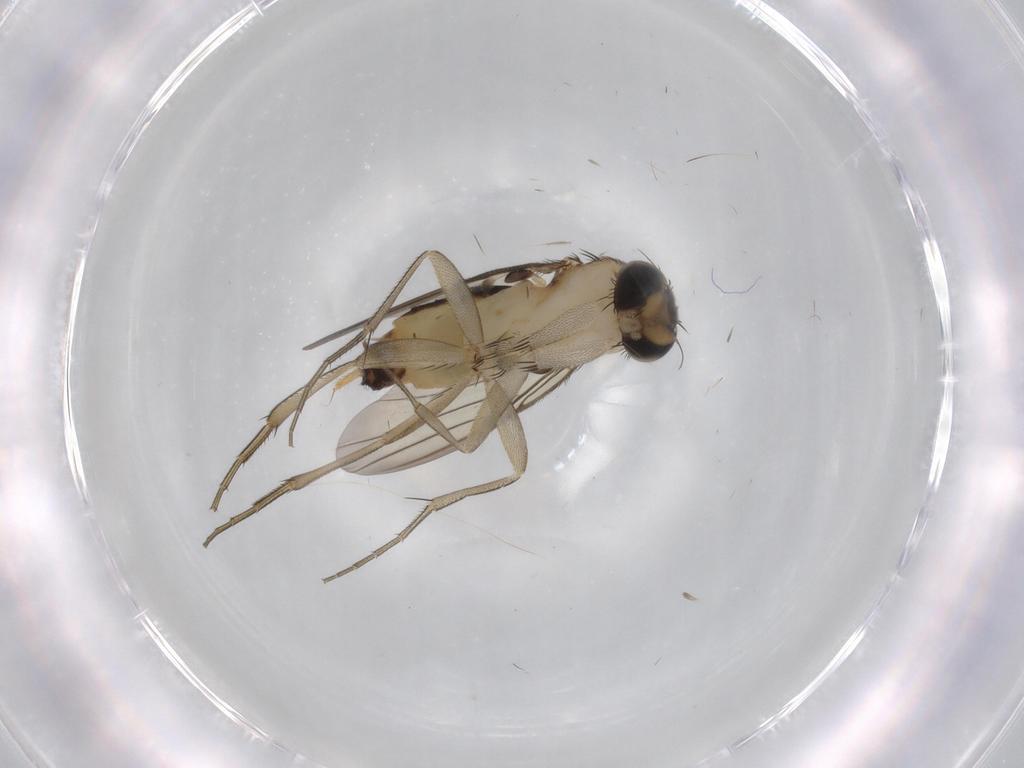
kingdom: Animalia
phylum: Arthropoda
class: Insecta
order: Diptera
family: Phoridae
